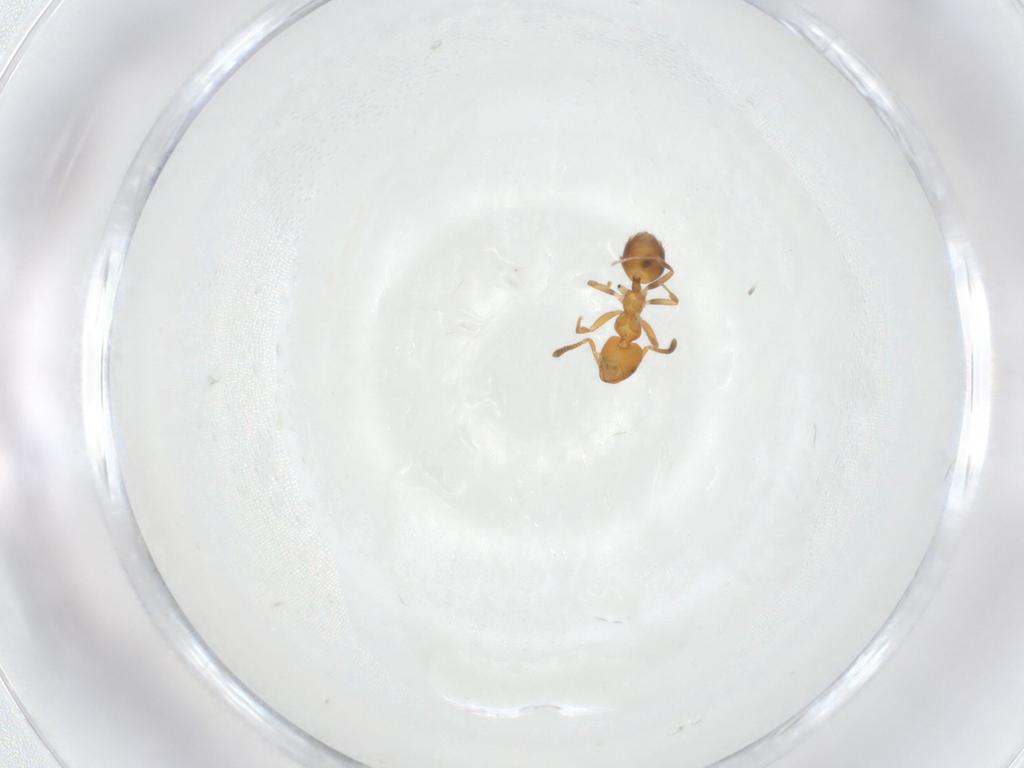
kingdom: Animalia
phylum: Arthropoda
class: Insecta
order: Hymenoptera
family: Formicidae
